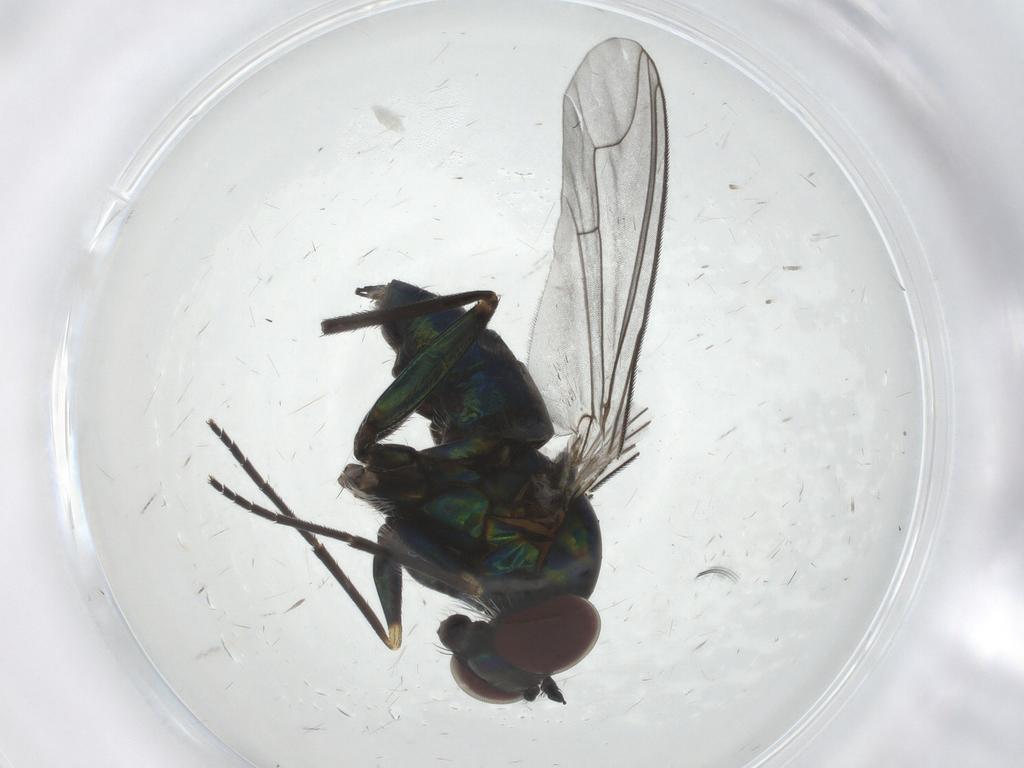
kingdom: Animalia
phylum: Arthropoda
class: Insecta
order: Diptera
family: Dolichopodidae
